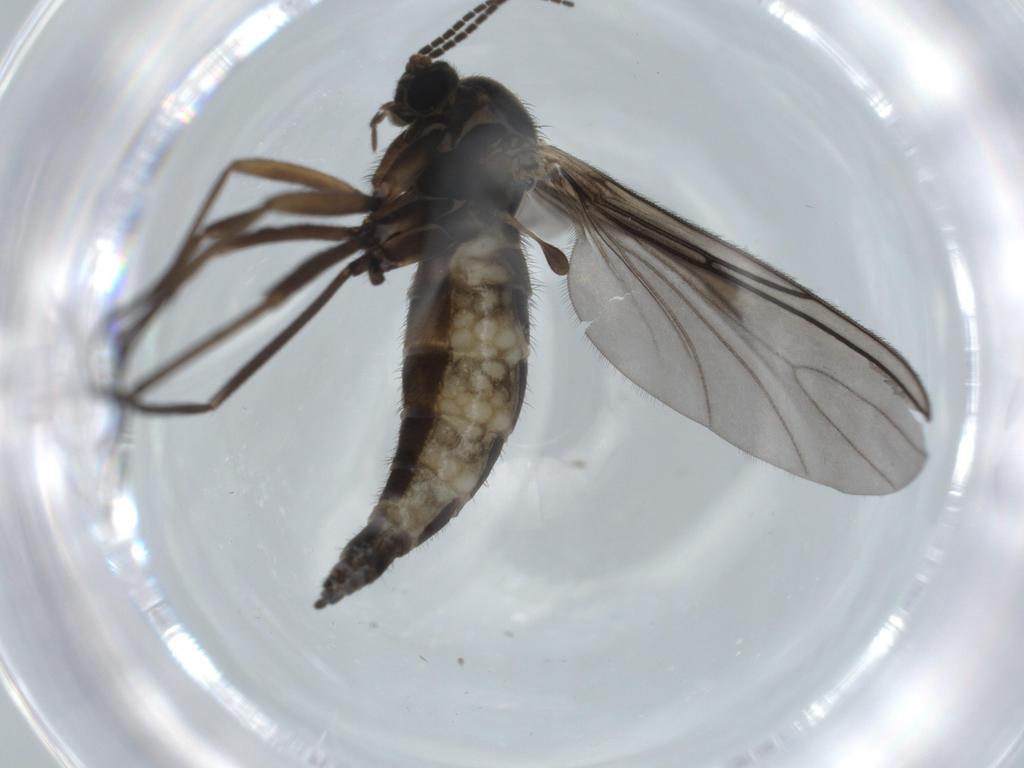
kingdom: Animalia
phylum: Arthropoda
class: Insecta
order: Diptera
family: Sciaridae
